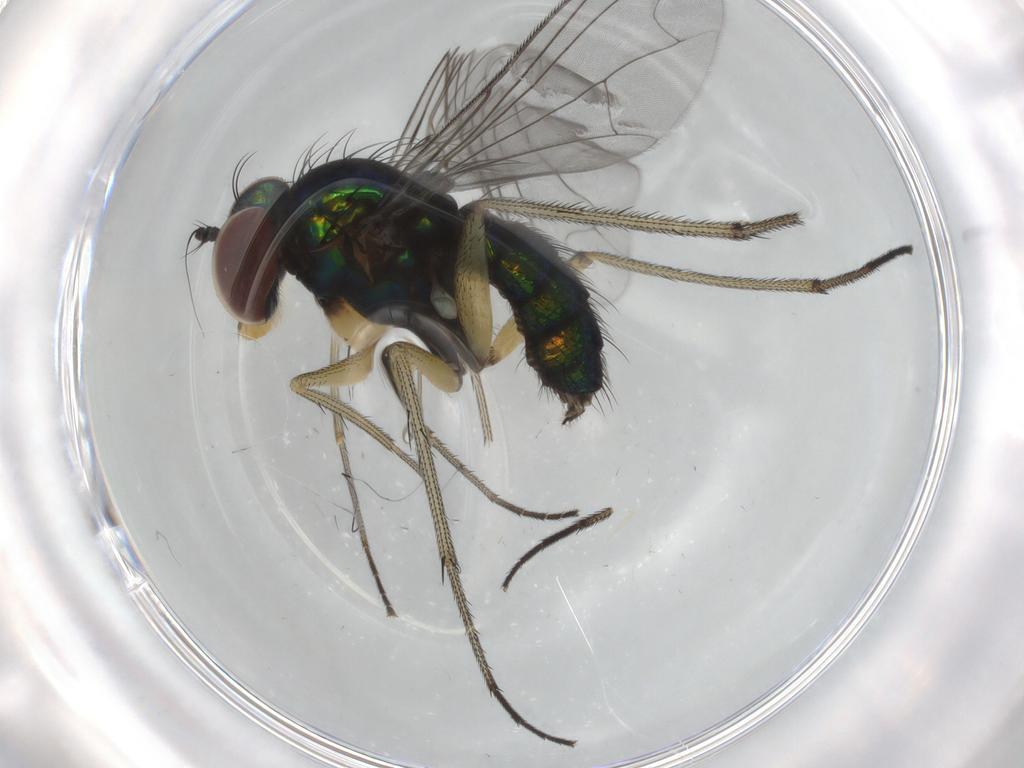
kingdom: Animalia
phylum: Arthropoda
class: Insecta
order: Diptera
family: Dolichopodidae
